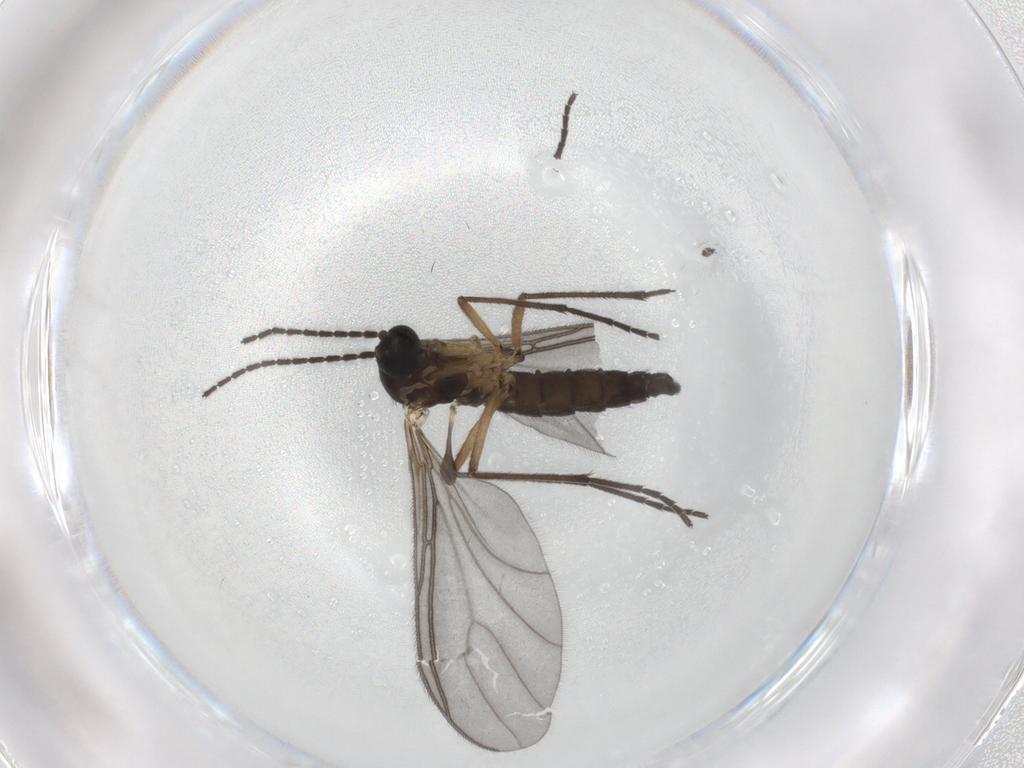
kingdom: Animalia
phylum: Arthropoda
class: Insecta
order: Diptera
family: Sciaridae
